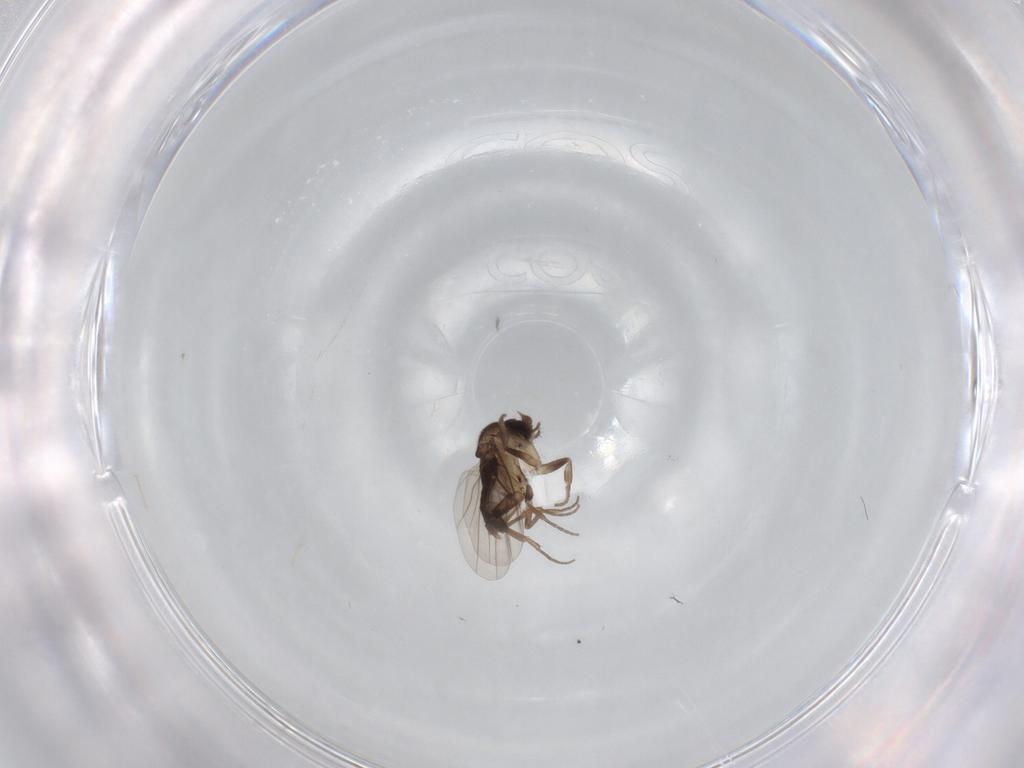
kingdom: Animalia
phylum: Arthropoda
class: Insecta
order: Diptera
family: Phoridae
